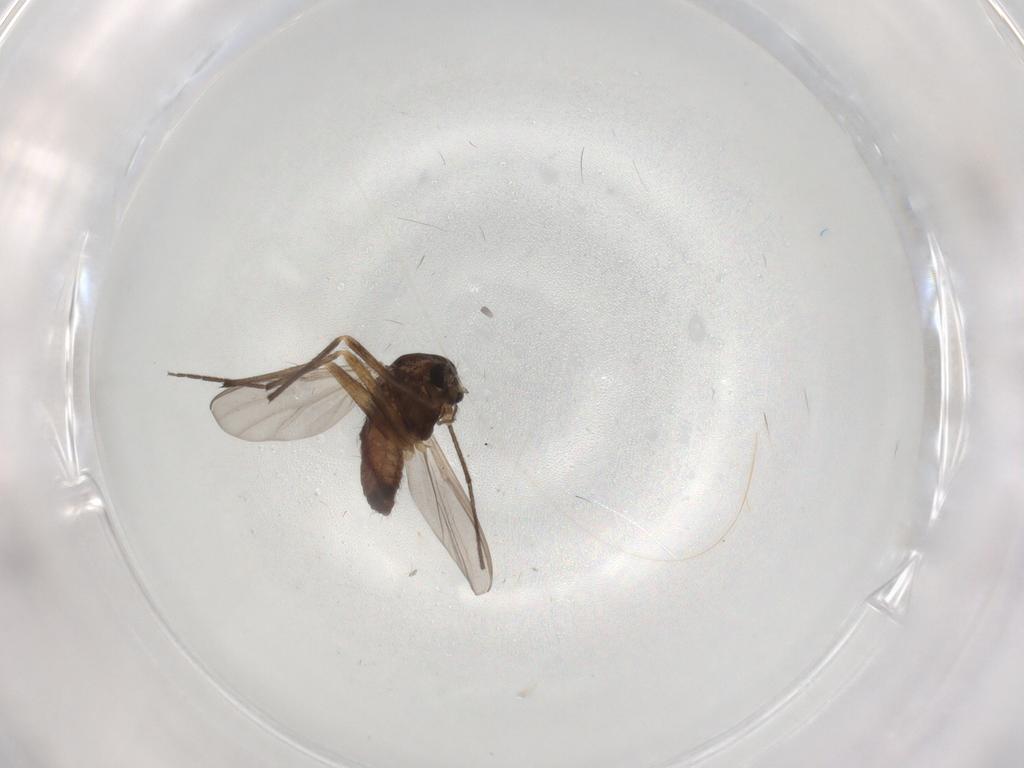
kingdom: Animalia
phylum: Arthropoda
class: Insecta
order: Diptera
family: Chironomidae
